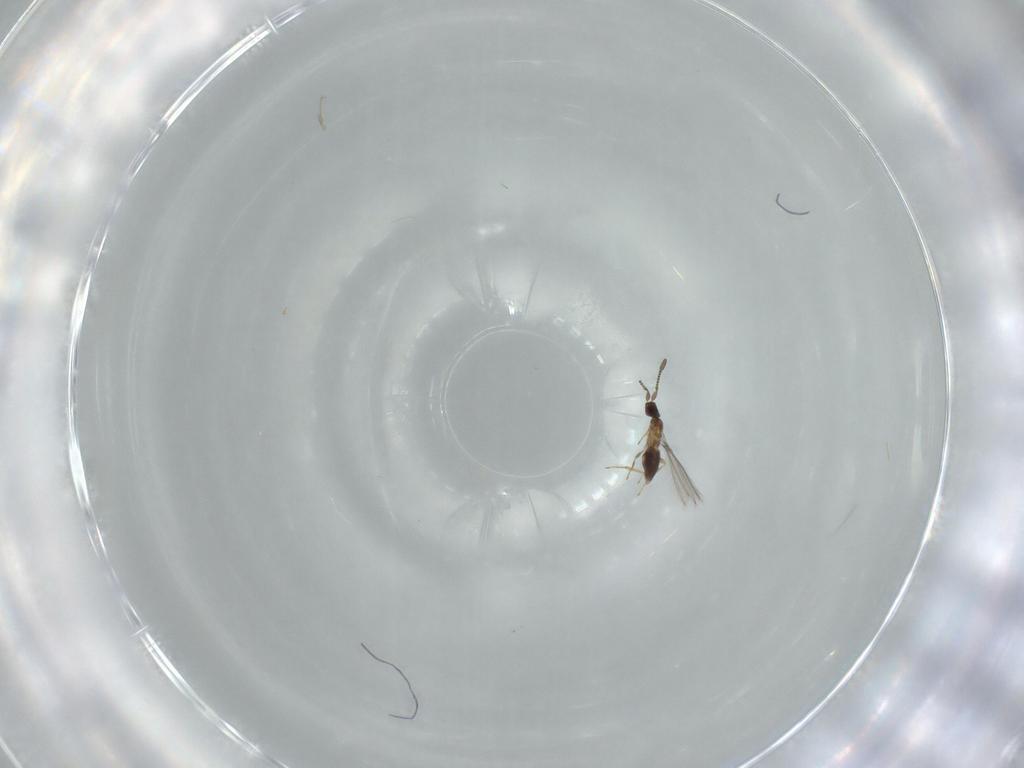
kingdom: Animalia
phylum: Arthropoda
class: Insecta
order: Hymenoptera
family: Mymaridae
